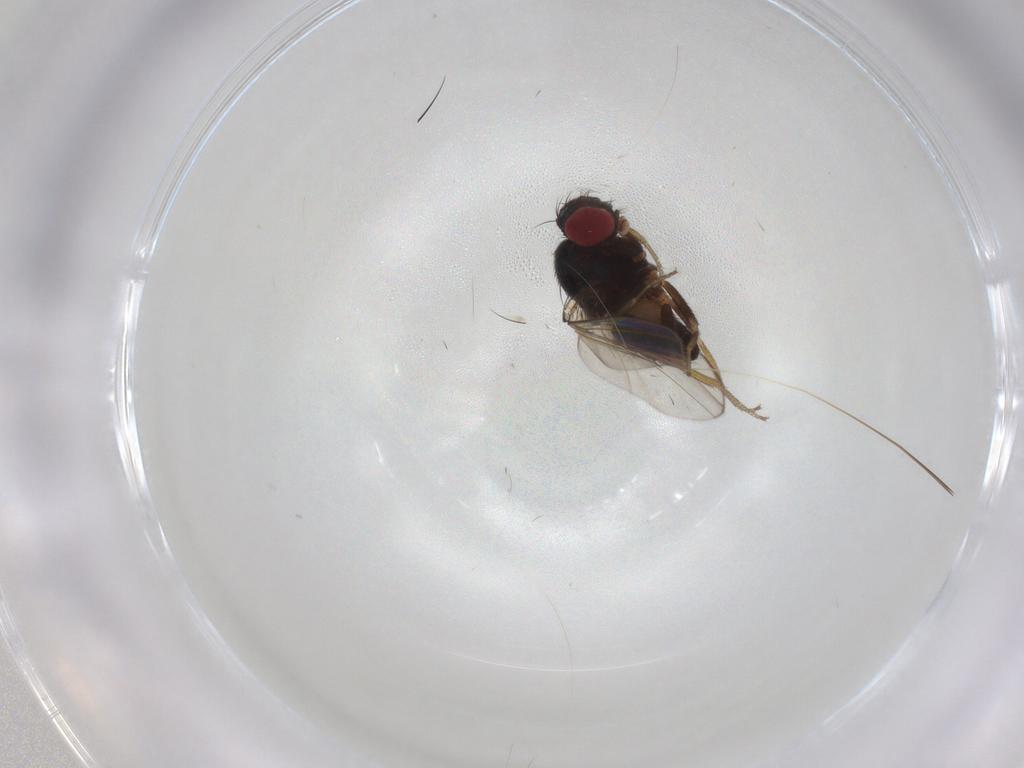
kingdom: Animalia
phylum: Arthropoda
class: Insecta
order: Diptera
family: Drosophilidae
